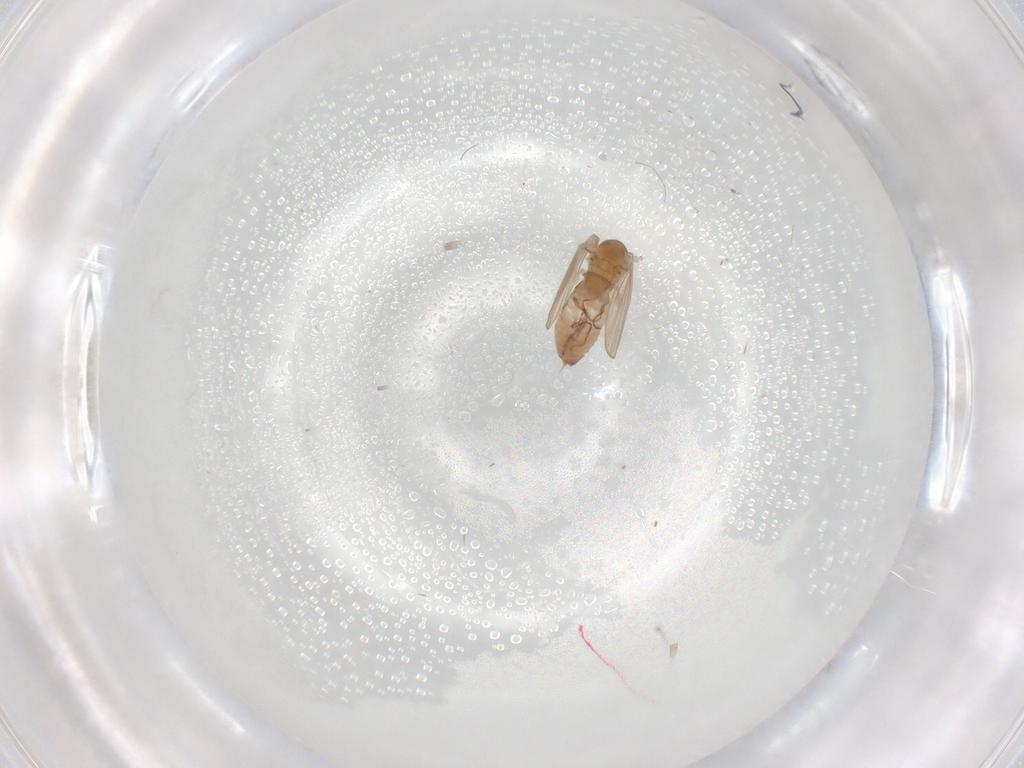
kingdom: Animalia
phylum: Arthropoda
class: Insecta
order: Diptera
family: Psychodidae
